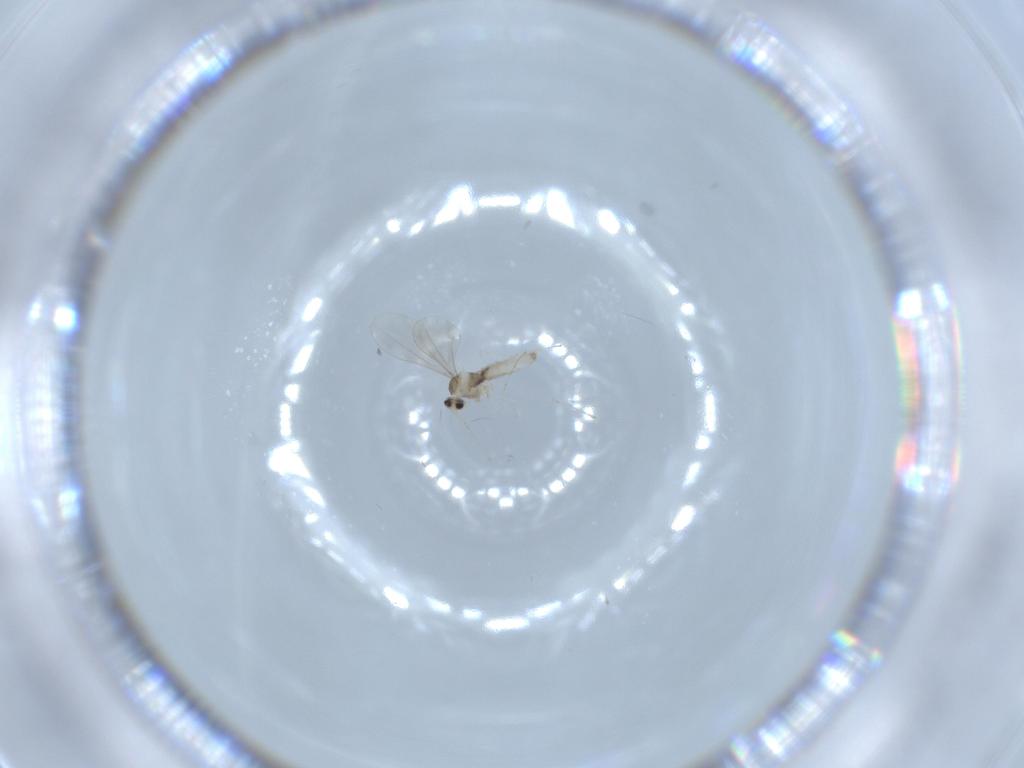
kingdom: Animalia
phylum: Arthropoda
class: Insecta
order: Diptera
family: Cecidomyiidae
